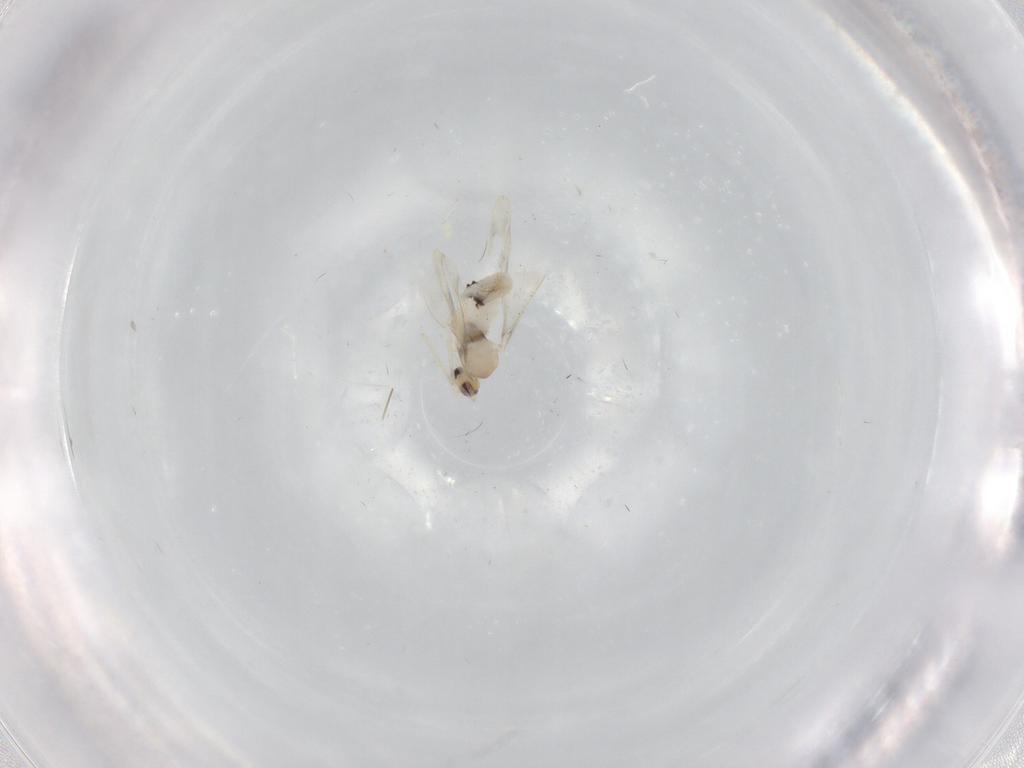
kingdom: Animalia
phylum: Arthropoda
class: Insecta
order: Diptera
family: Cecidomyiidae
